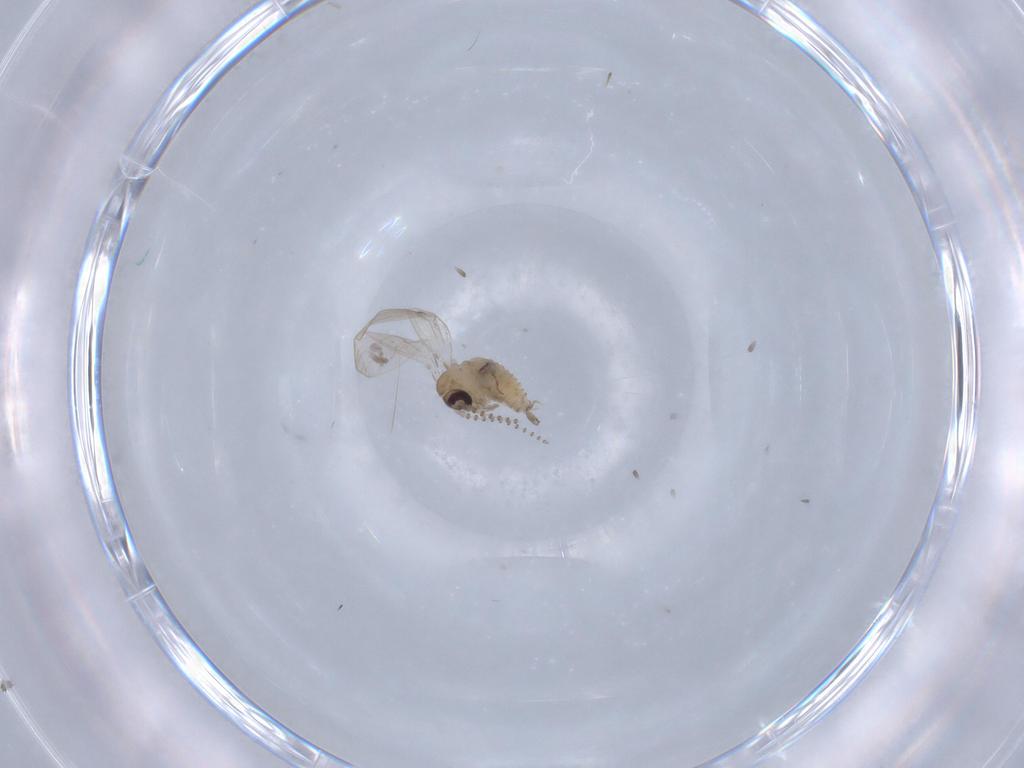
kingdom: Animalia
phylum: Arthropoda
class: Insecta
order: Diptera
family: Psychodidae
